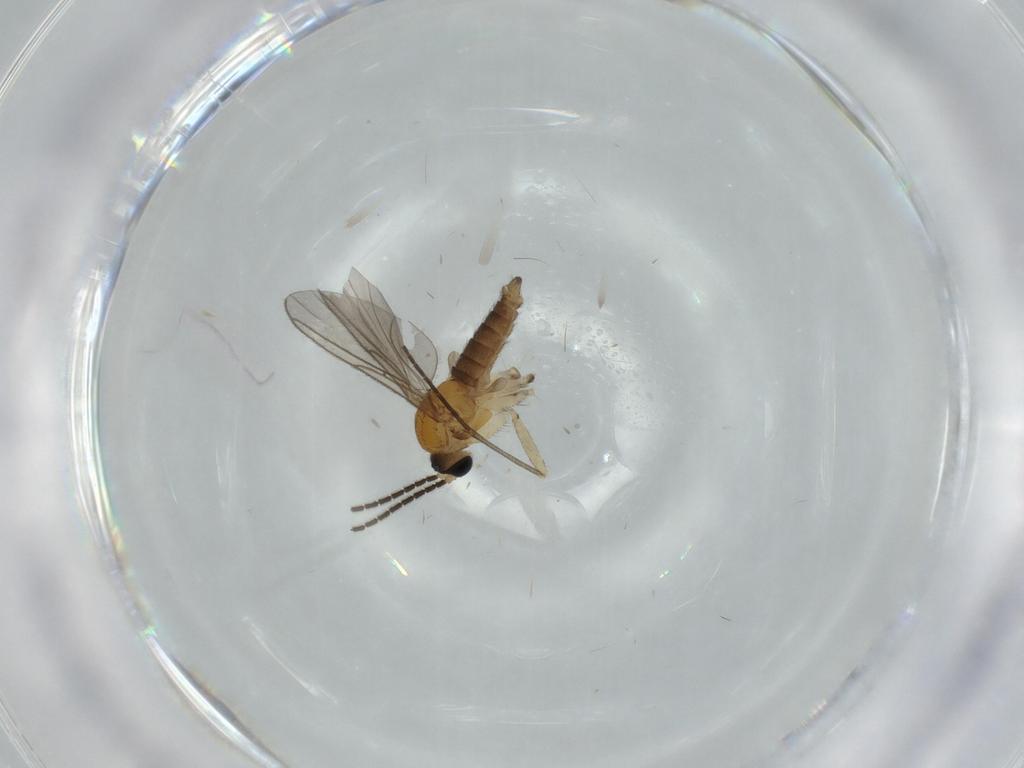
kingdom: Animalia
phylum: Arthropoda
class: Insecta
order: Diptera
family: Sciaridae
